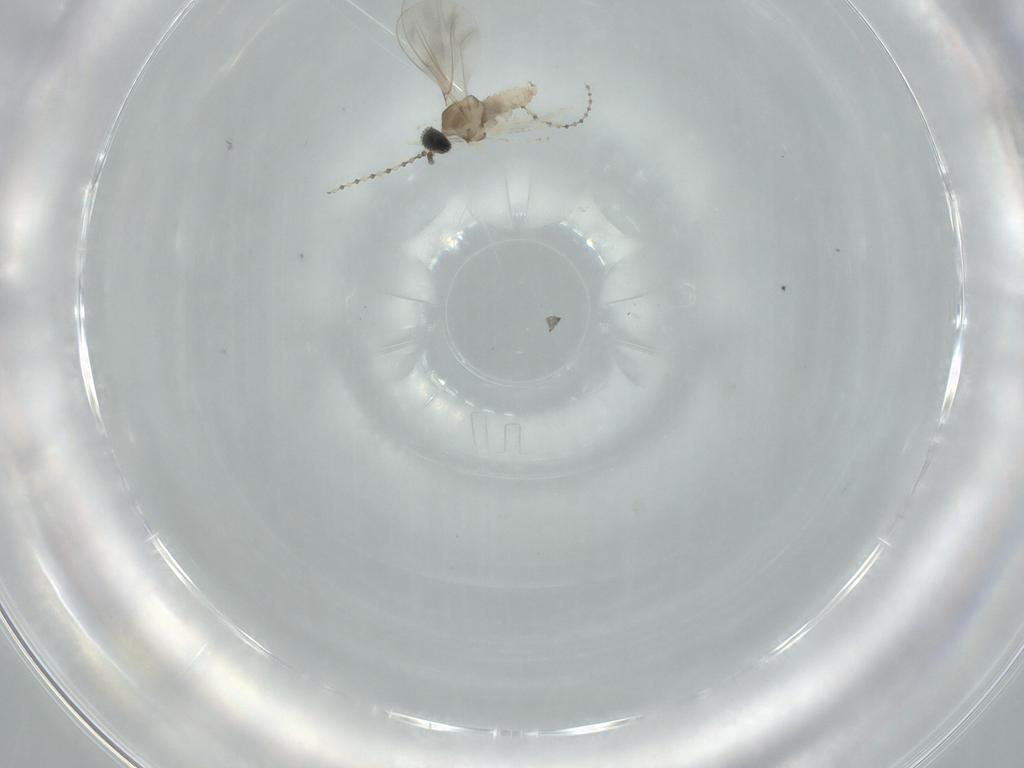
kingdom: Animalia
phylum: Arthropoda
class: Insecta
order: Diptera
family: Cecidomyiidae
